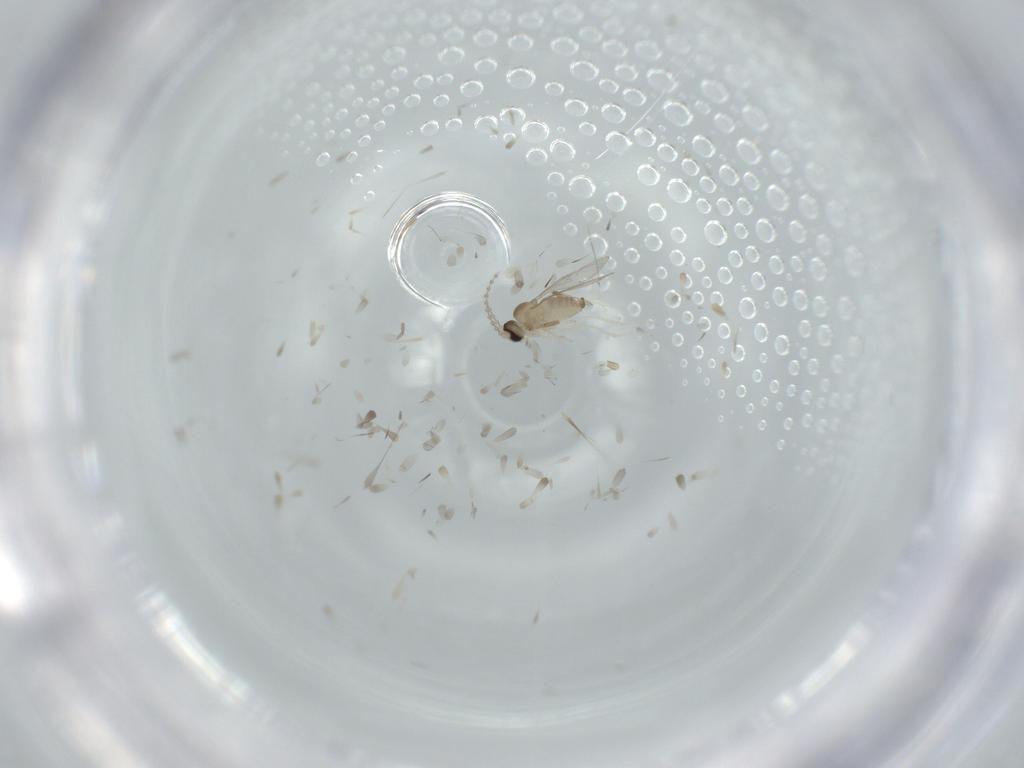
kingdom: Animalia
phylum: Arthropoda
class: Insecta
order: Diptera
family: Cecidomyiidae
